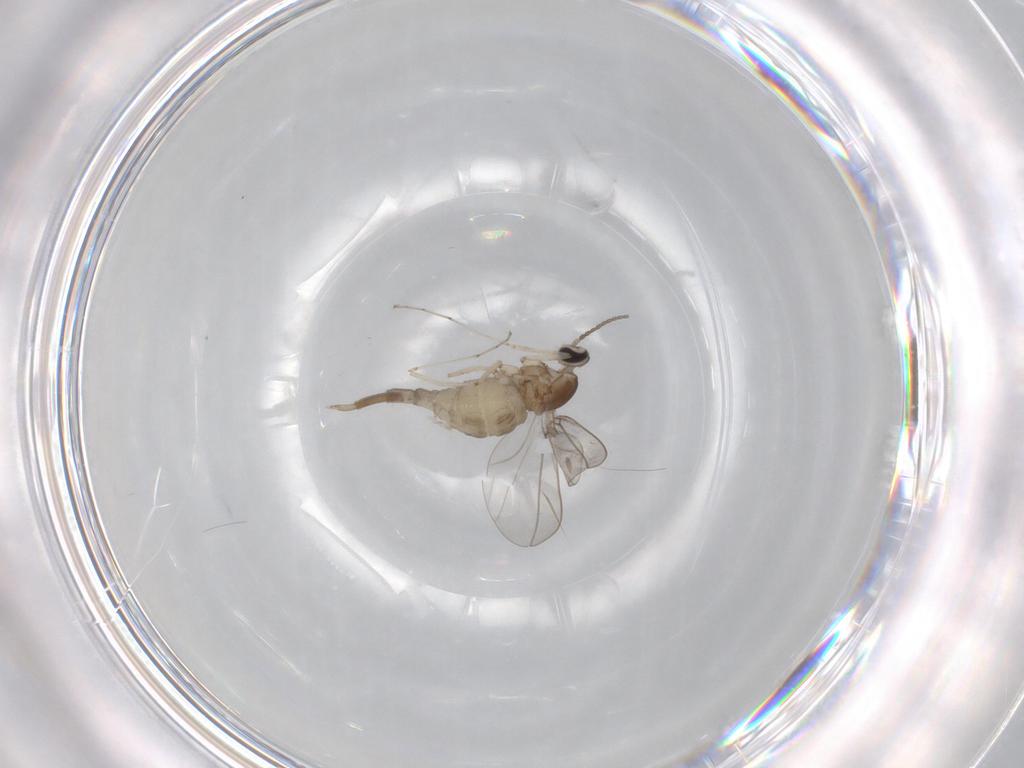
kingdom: Animalia
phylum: Arthropoda
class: Insecta
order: Diptera
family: Cecidomyiidae
